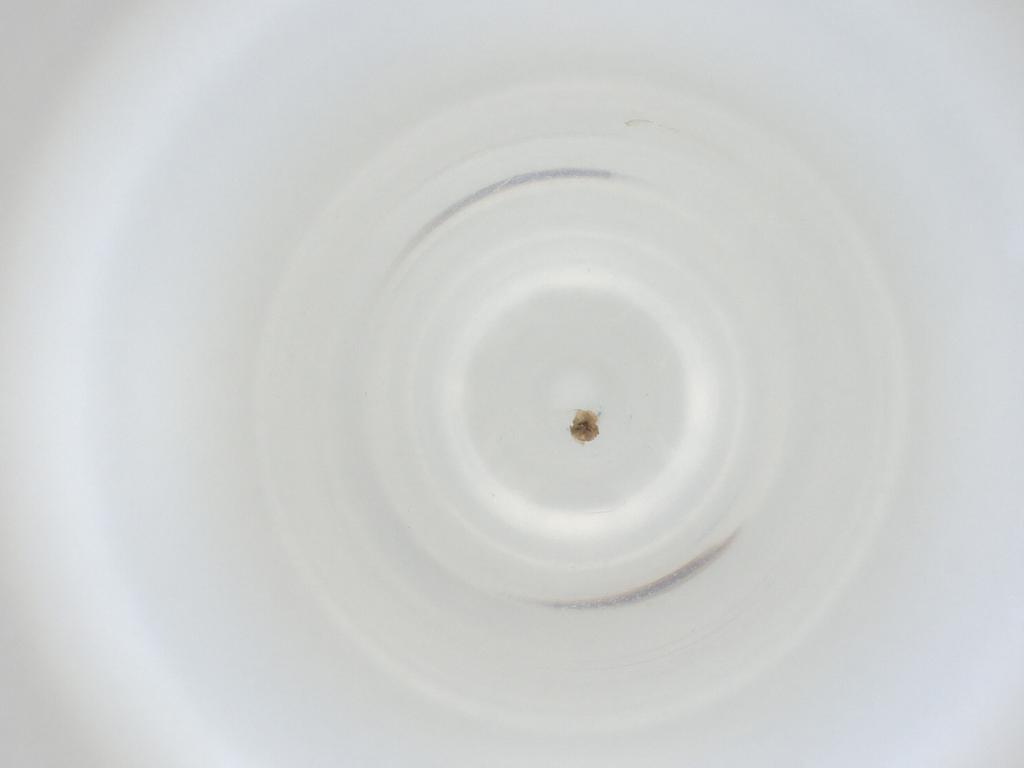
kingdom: Animalia
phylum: Arthropoda
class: Insecta
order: Diptera
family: Cecidomyiidae
